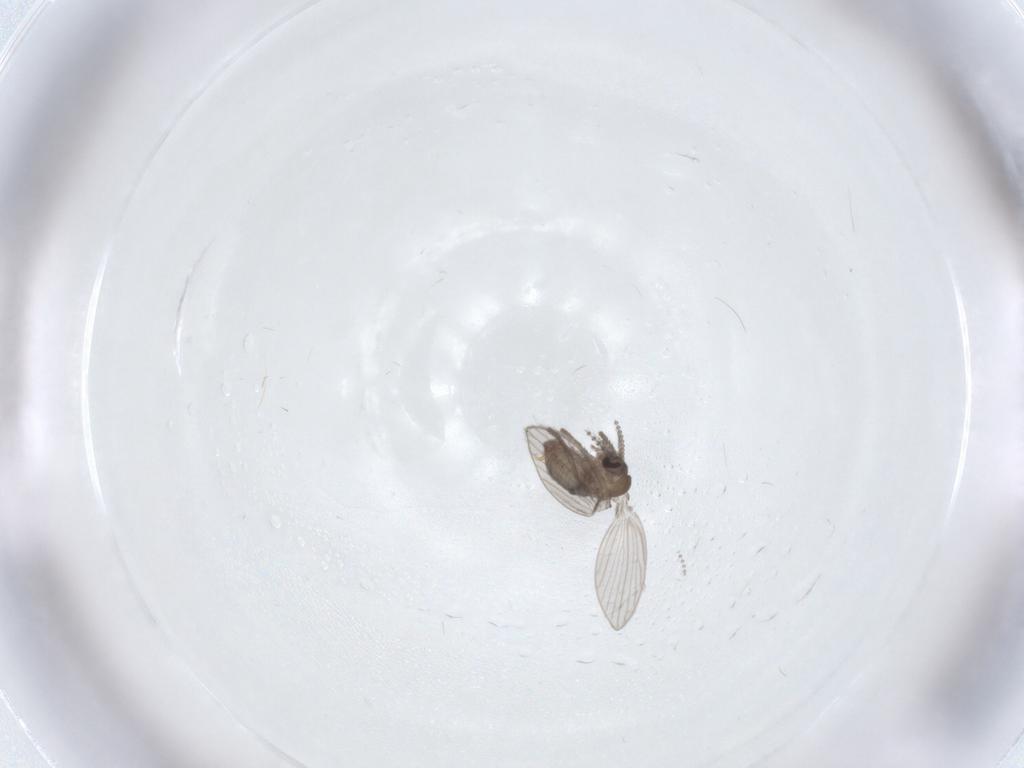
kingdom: Animalia
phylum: Arthropoda
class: Insecta
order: Diptera
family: Psychodidae
